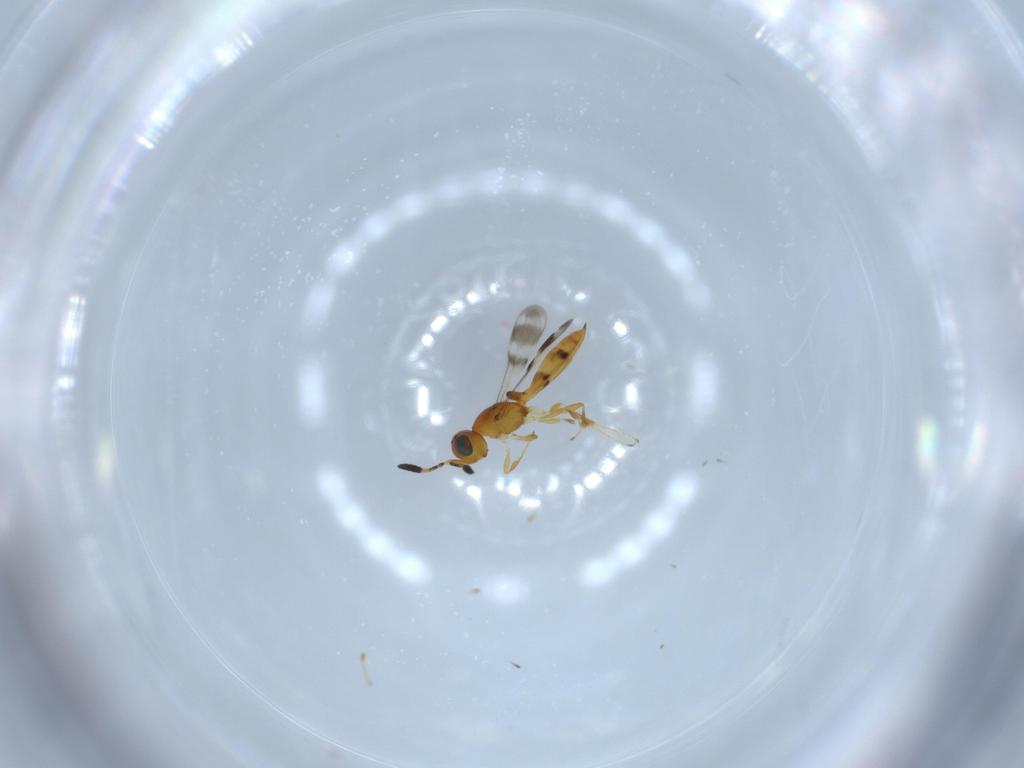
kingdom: Animalia
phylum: Arthropoda
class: Insecta
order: Hymenoptera
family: Scelionidae
